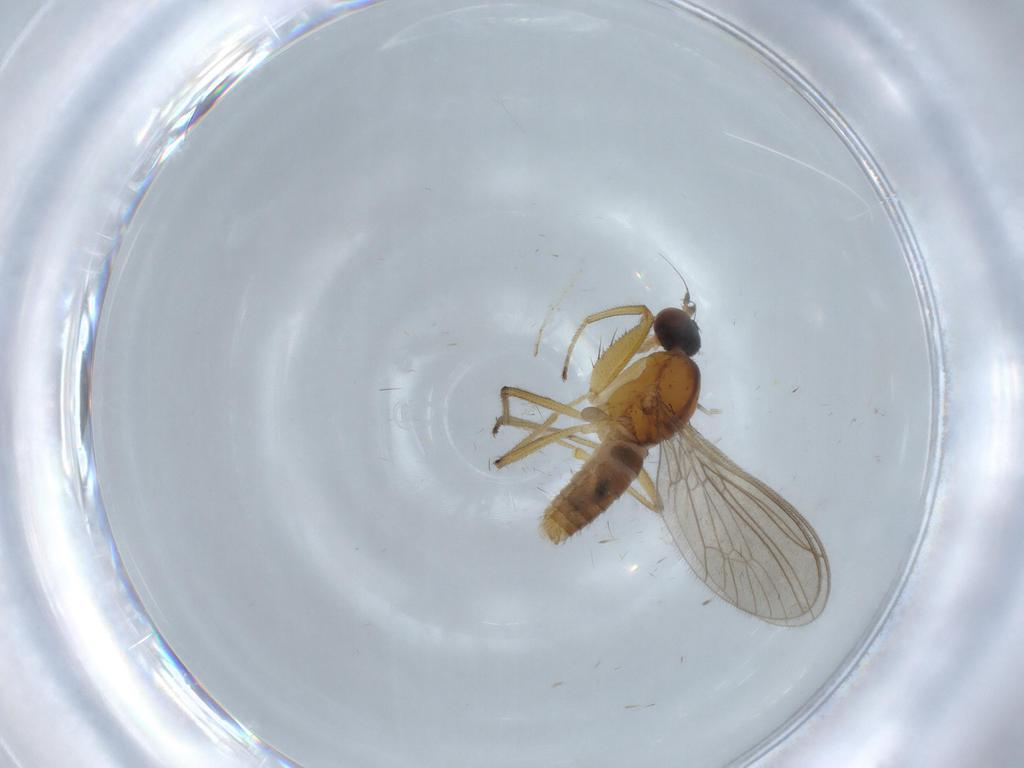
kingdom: Animalia
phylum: Arthropoda
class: Insecta
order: Diptera
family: Empididae
